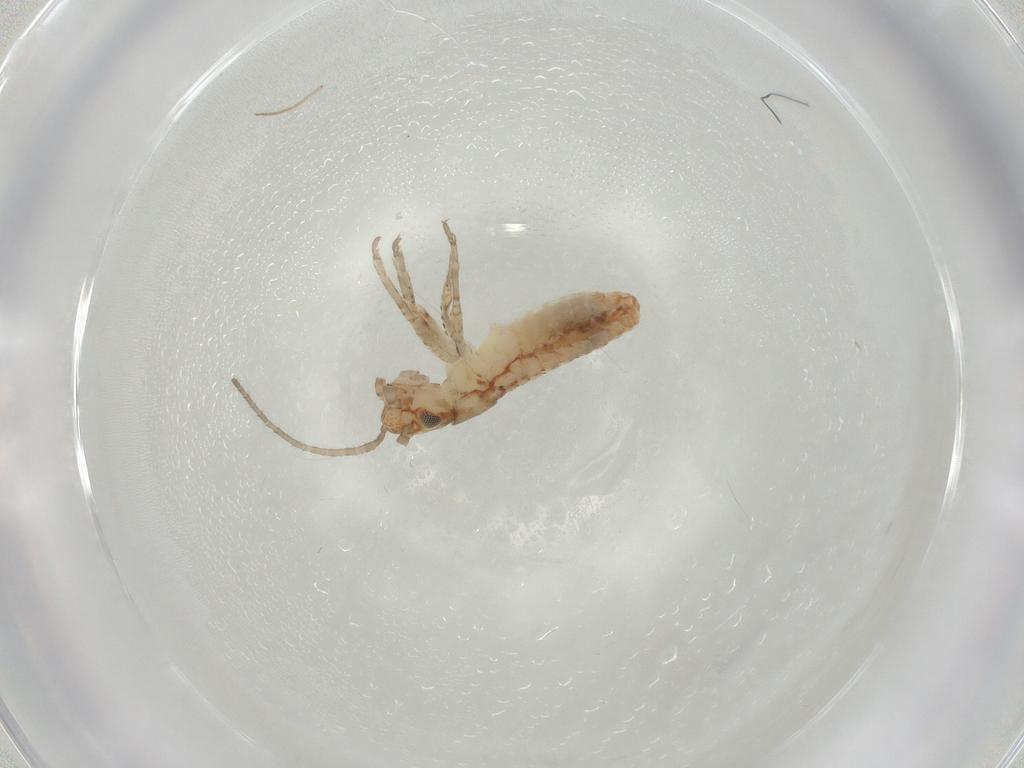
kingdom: Animalia
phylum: Arthropoda
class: Insecta
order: Orthoptera
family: Mogoplistidae
